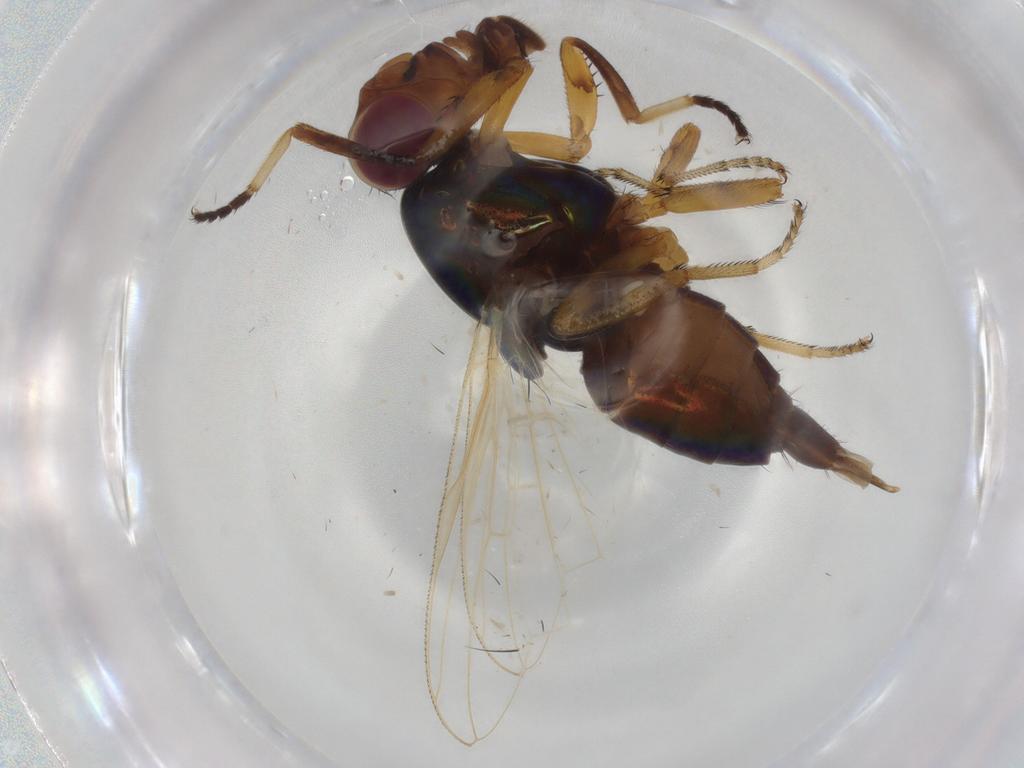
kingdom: Animalia
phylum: Arthropoda
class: Insecta
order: Diptera
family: Ulidiidae
